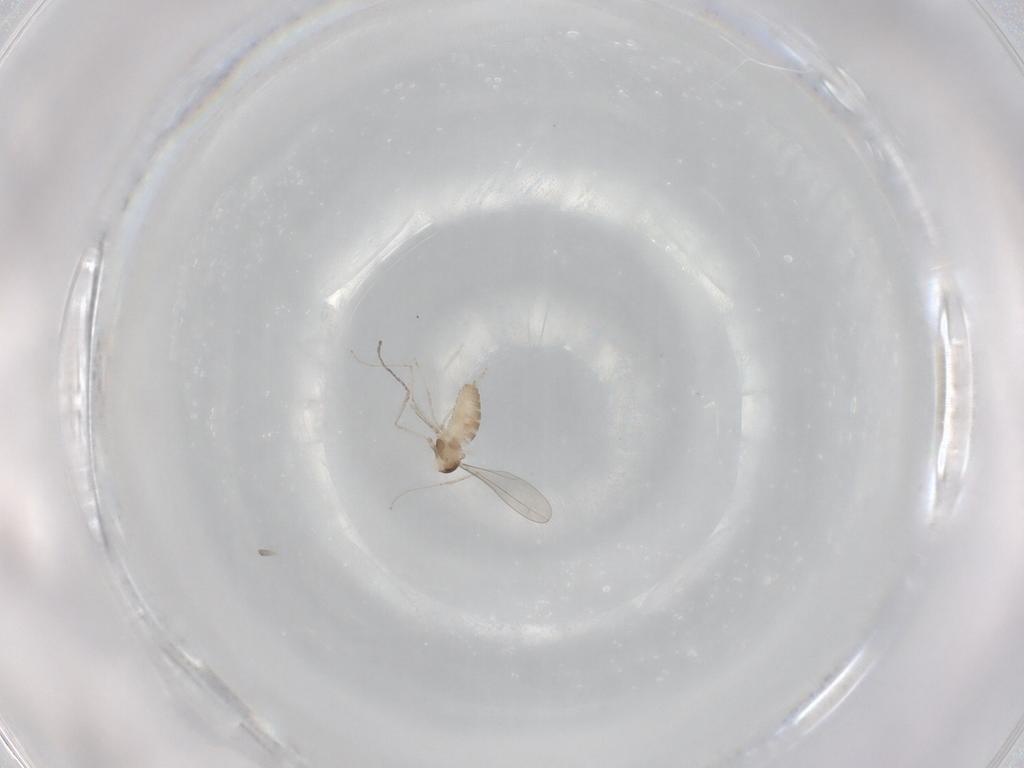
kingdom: Animalia
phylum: Arthropoda
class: Insecta
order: Diptera
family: Cecidomyiidae
